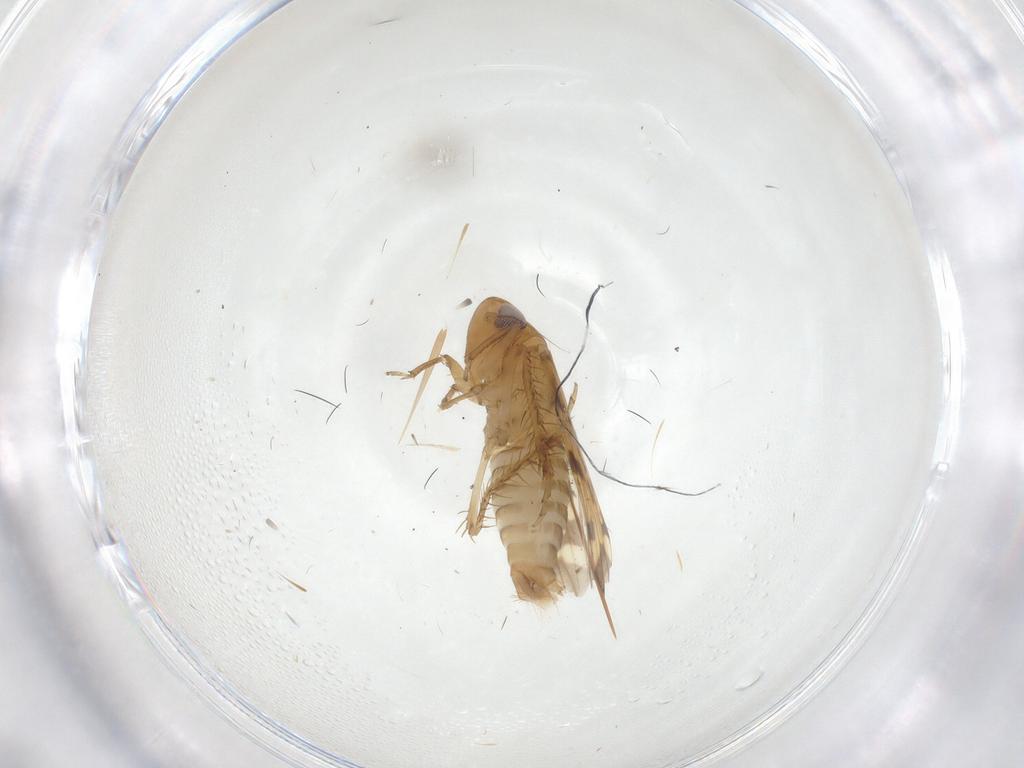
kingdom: Animalia
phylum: Arthropoda
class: Insecta
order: Hemiptera
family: Cicadellidae
